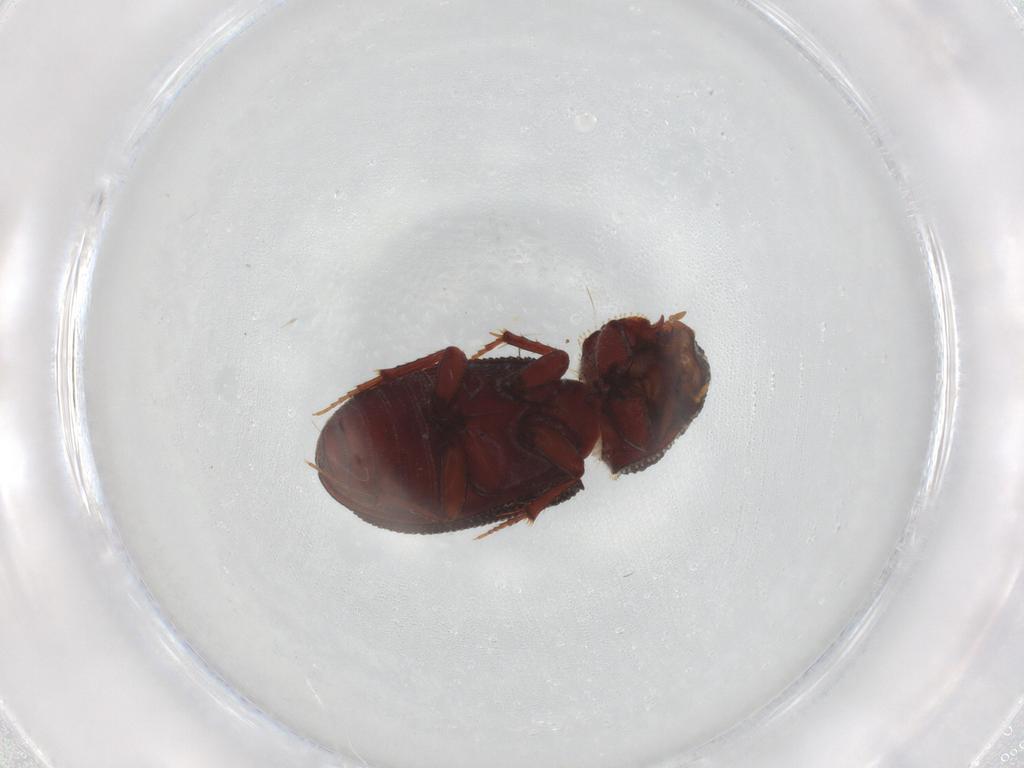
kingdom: Animalia
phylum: Arthropoda
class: Insecta
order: Coleoptera
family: Scarabaeidae
